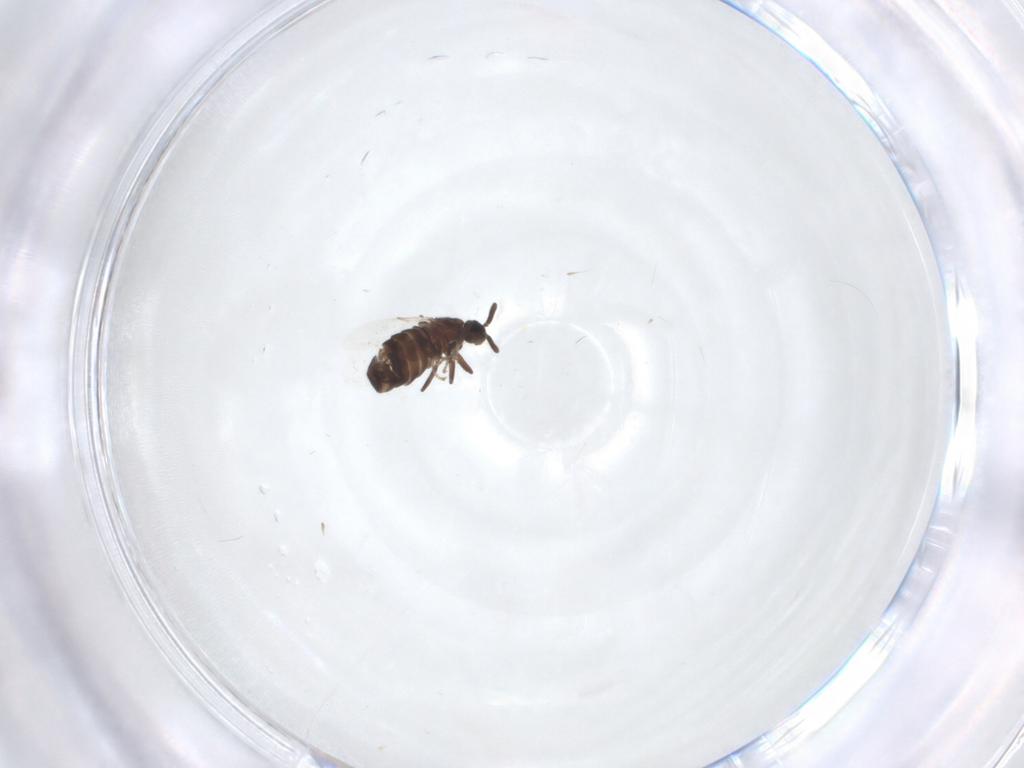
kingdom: Animalia
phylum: Arthropoda
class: Insecta
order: Diptera
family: Scatopsidae
